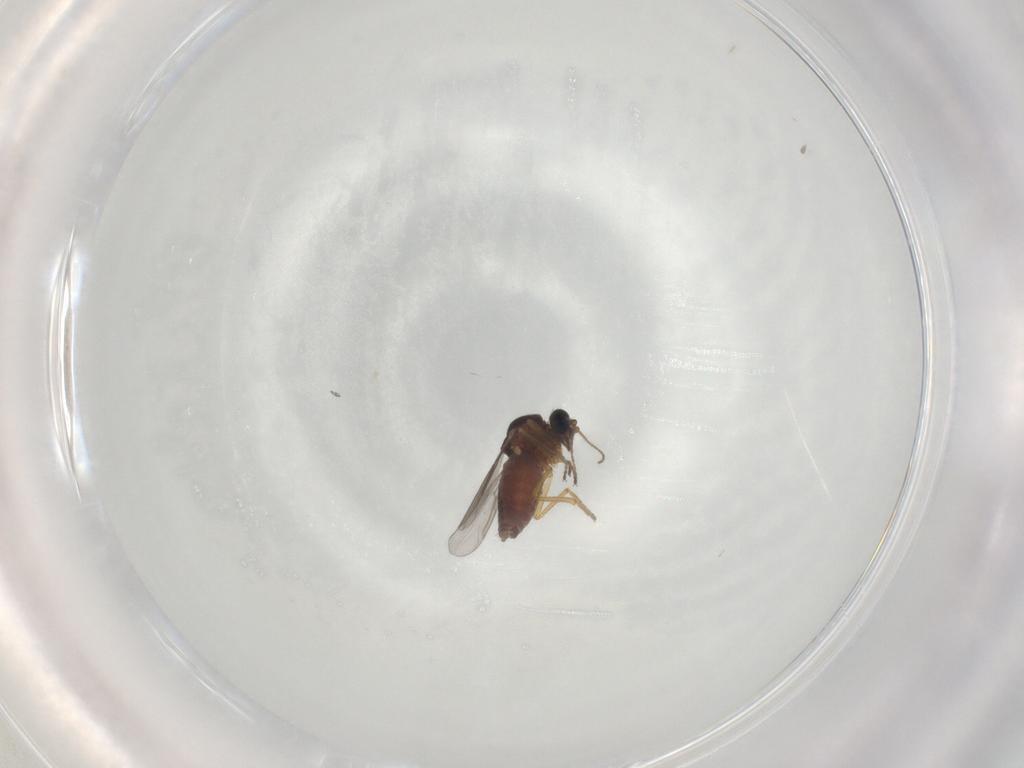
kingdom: Animalia
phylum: Arthropoda
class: Insecta
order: Diptera
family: Ceratopogonidae
